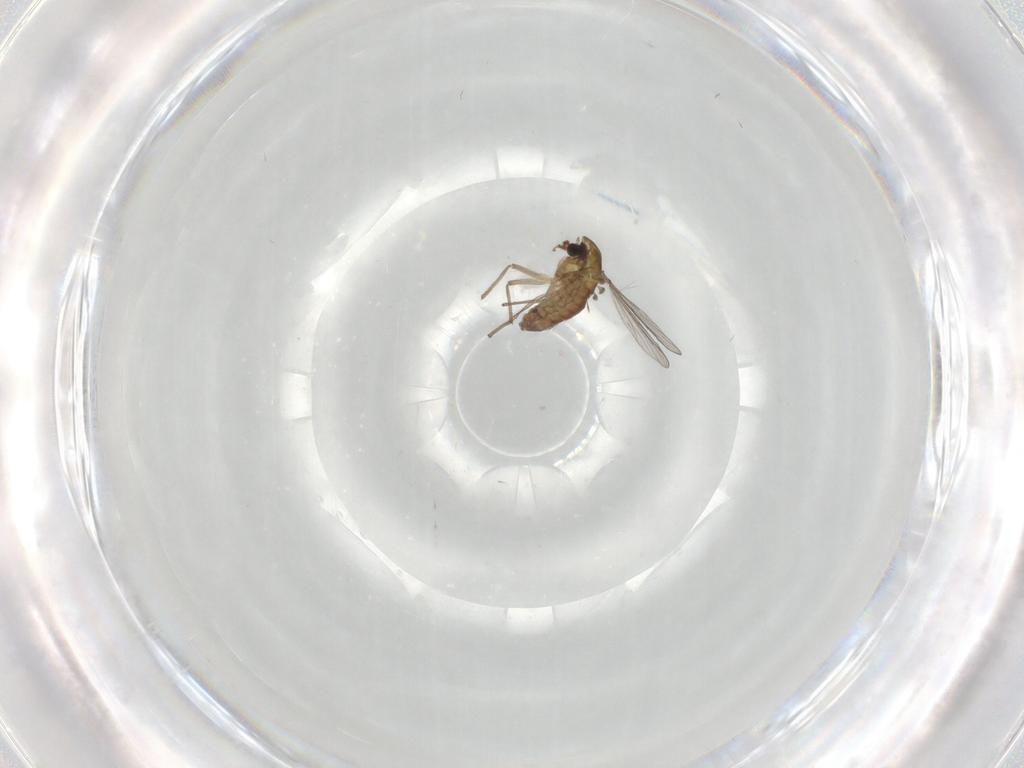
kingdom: Animalia
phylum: Arthropoda
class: Insecta
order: Diptera
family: Chironomidae
